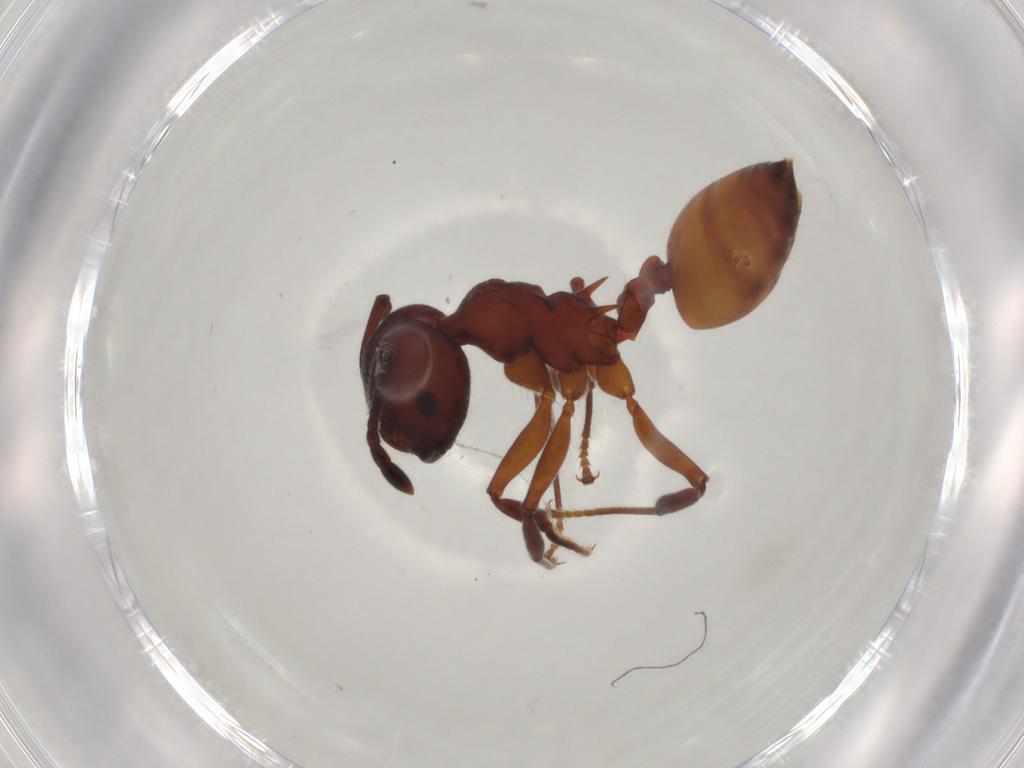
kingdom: Animalia
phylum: Arthropoda
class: Insecta
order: Hymenoptera
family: Formicidae
